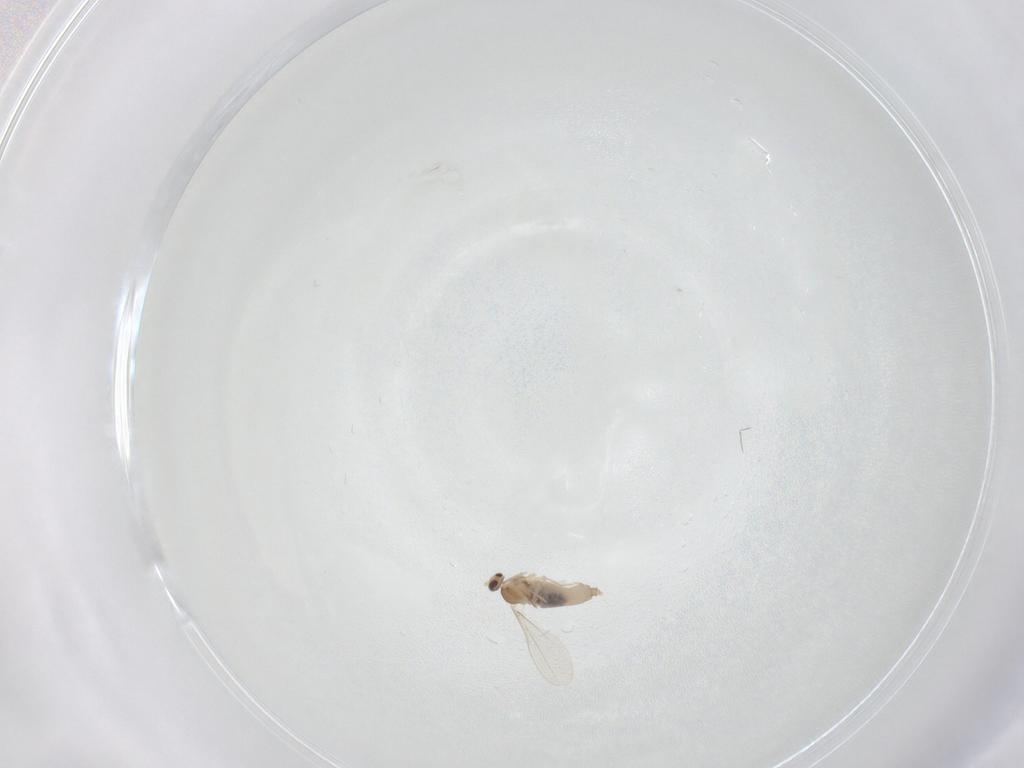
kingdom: Animalia
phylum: Arthropoda
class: Insecta
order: Diptera
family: Cecidomyiidae
